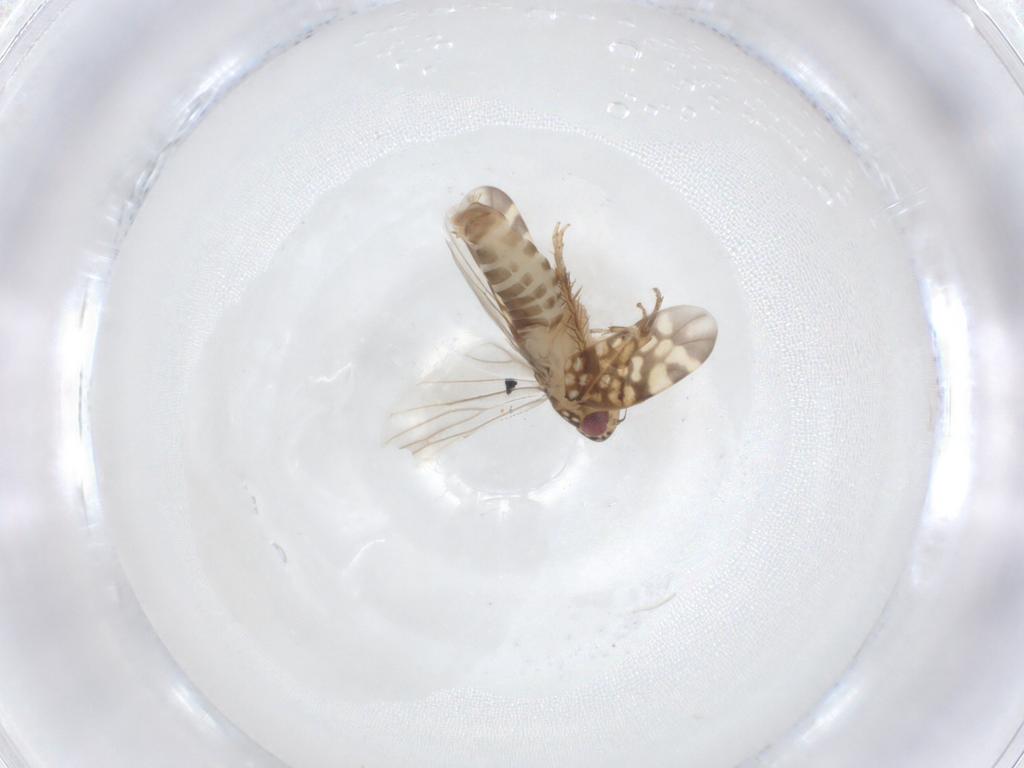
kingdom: Animalia
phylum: Arthropoda
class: Insecta
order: Hemiptera
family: Cicadellidae
